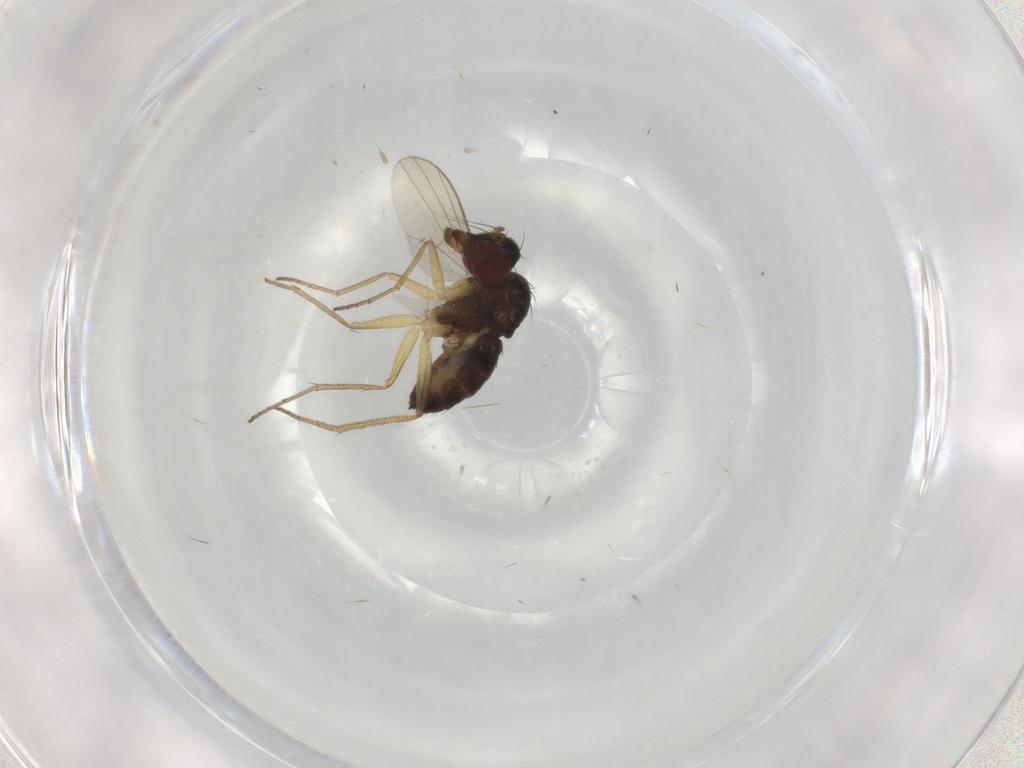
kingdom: Animalia
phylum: Arthropoda
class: Insecta
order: Diptera
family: Dolichopodidae
